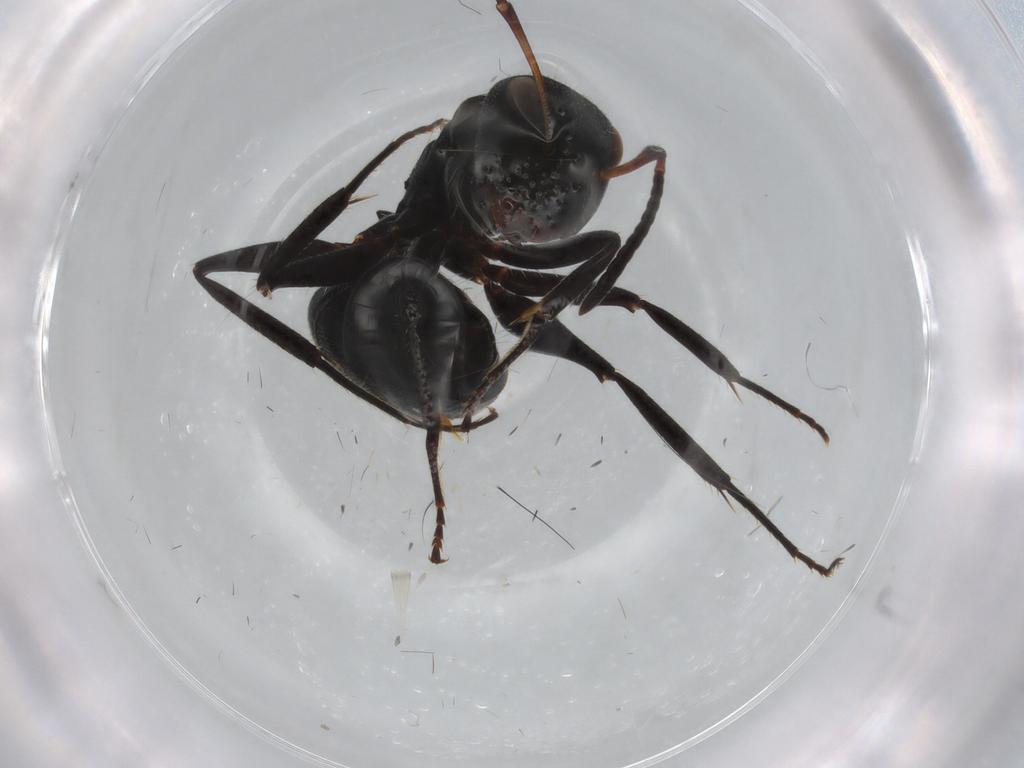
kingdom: Animalia
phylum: Arthropoda
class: Insecta
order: Hymenoptera
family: Formicidae
